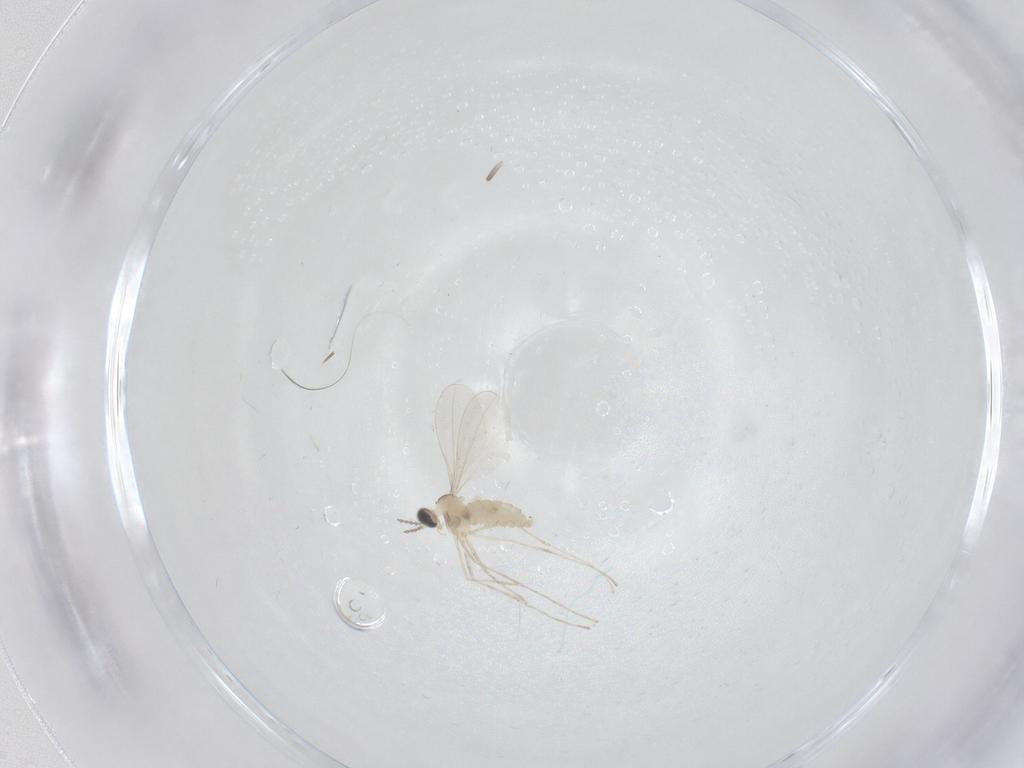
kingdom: Animalia
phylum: Arthropoda
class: Insecta
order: Diptera
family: Cecidomyiidae
